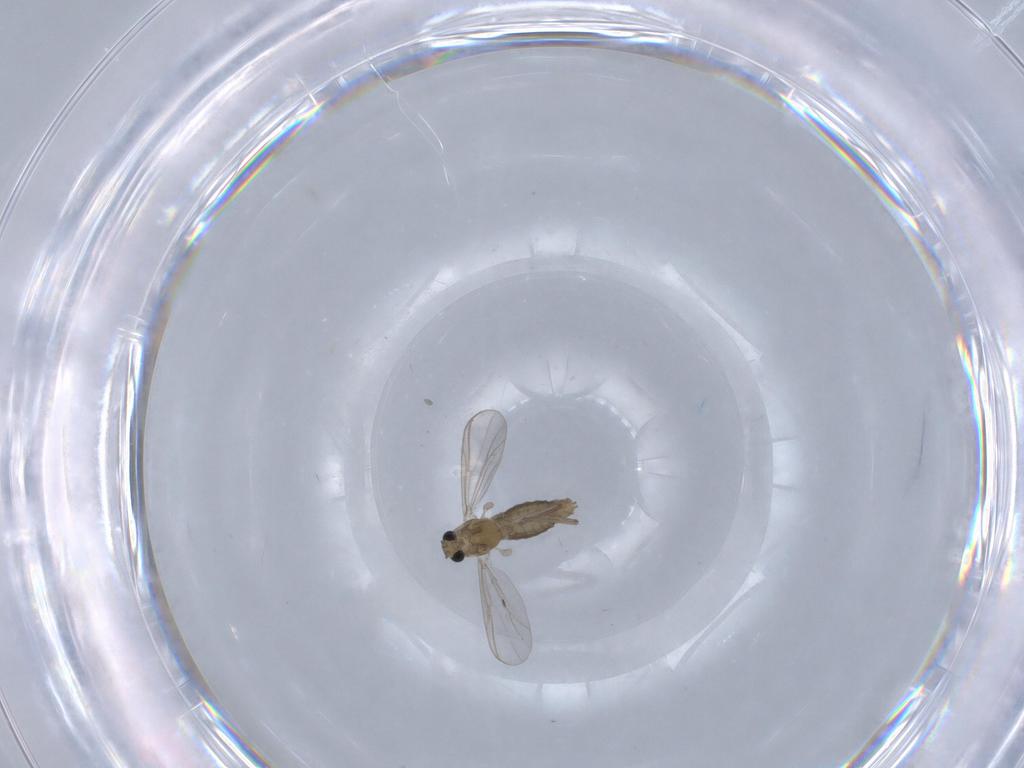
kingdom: Animalia
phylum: Arthropoda
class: Insecta
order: Diptera
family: Chironomidae
